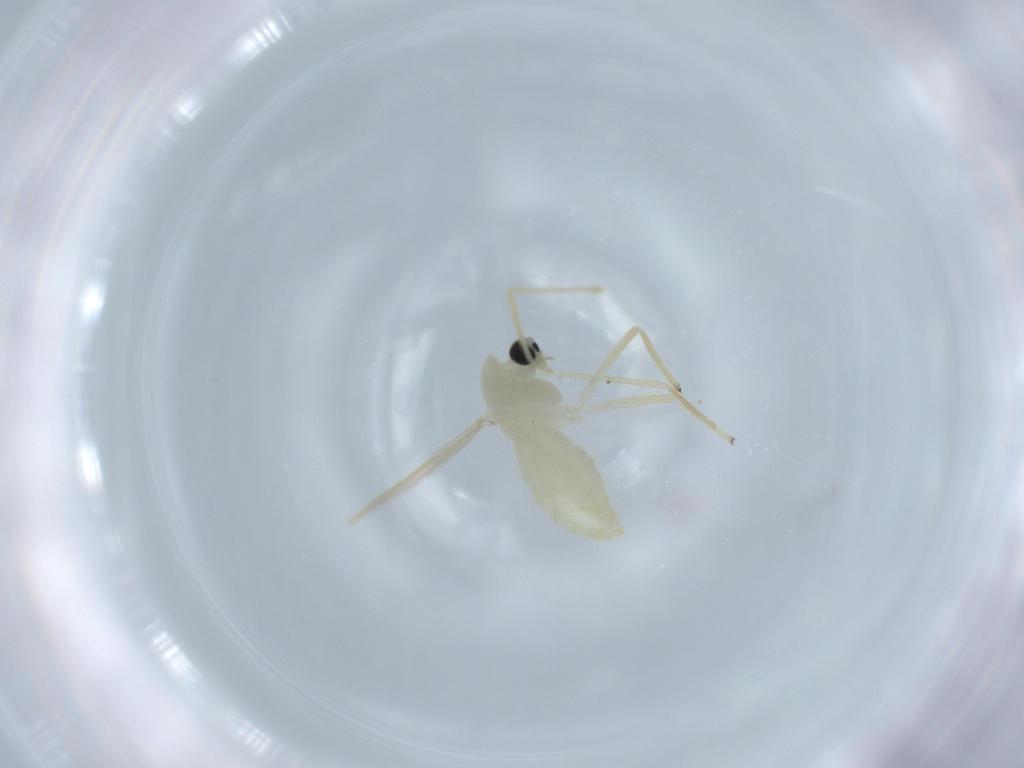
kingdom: Animalia
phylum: Arthropoda
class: Insecta
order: Diptera
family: Chironomidae
